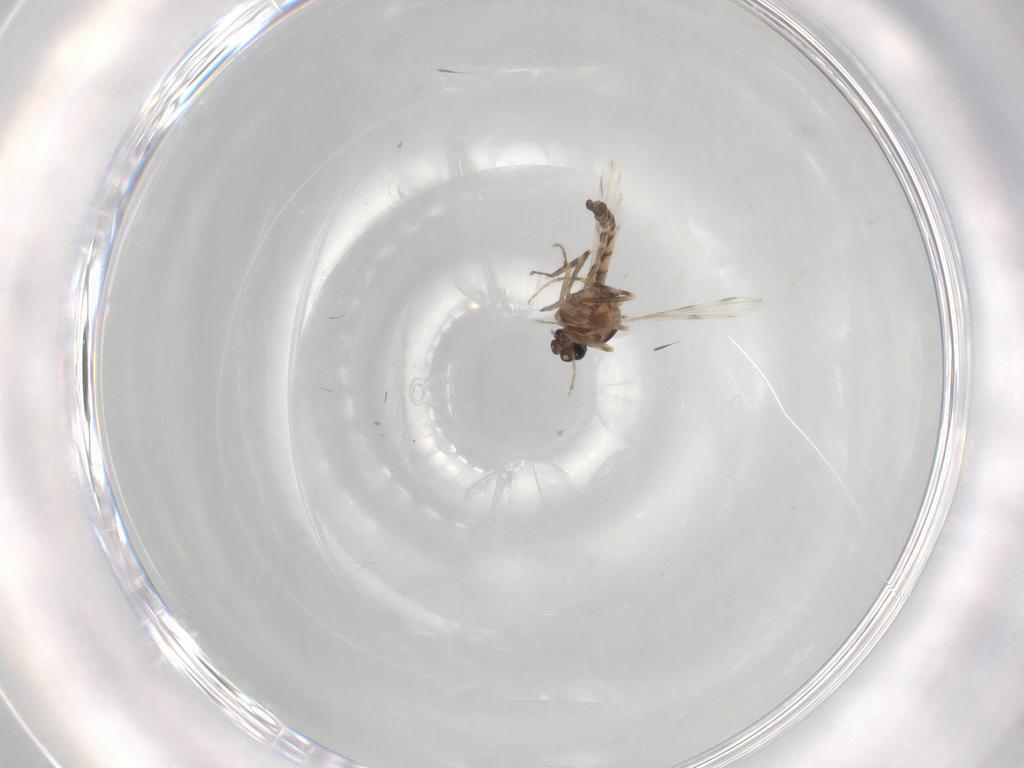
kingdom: Animalia
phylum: Arthropoda
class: Insecta
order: Diptera
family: Ceratopogonidae
